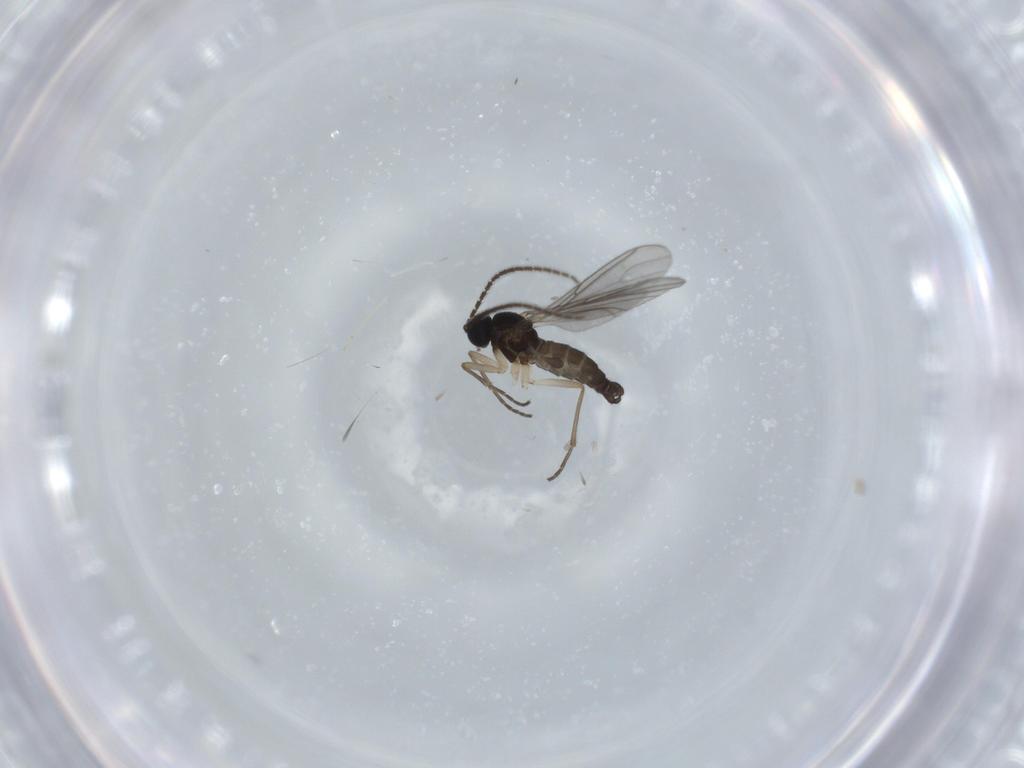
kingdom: Animalia
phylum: Arthropoda
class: Insecta
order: Diptera
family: Sciaridae
